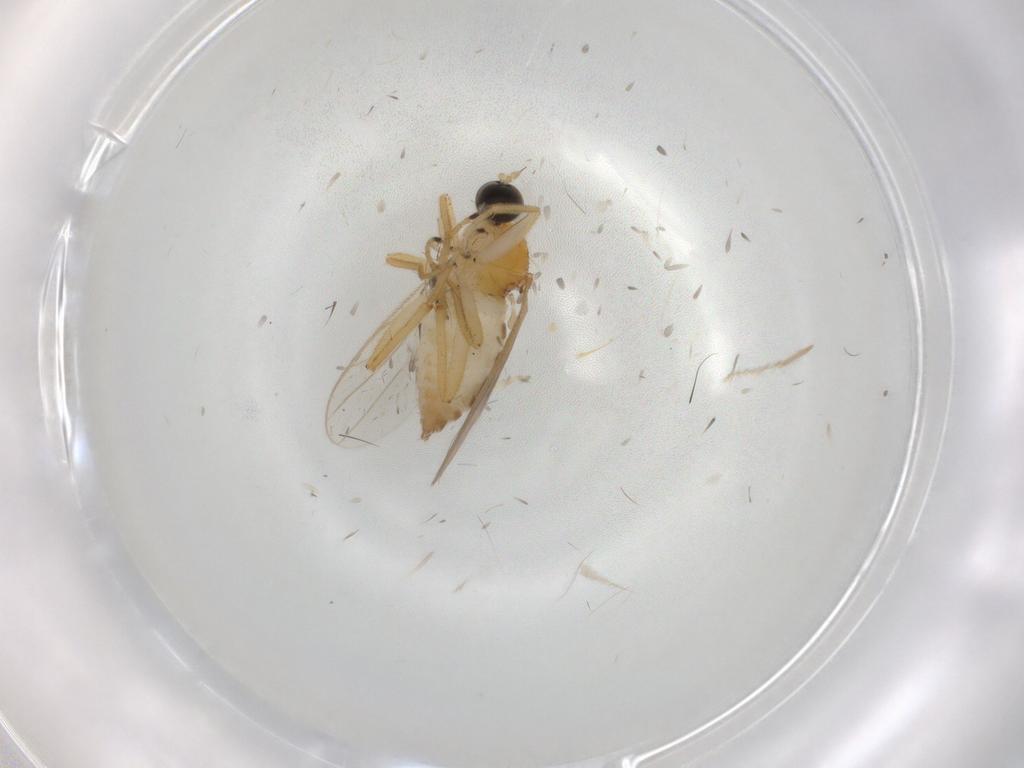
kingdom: Animalia
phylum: Arthropoda
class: Insecta
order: Diptera
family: Hybotidae
